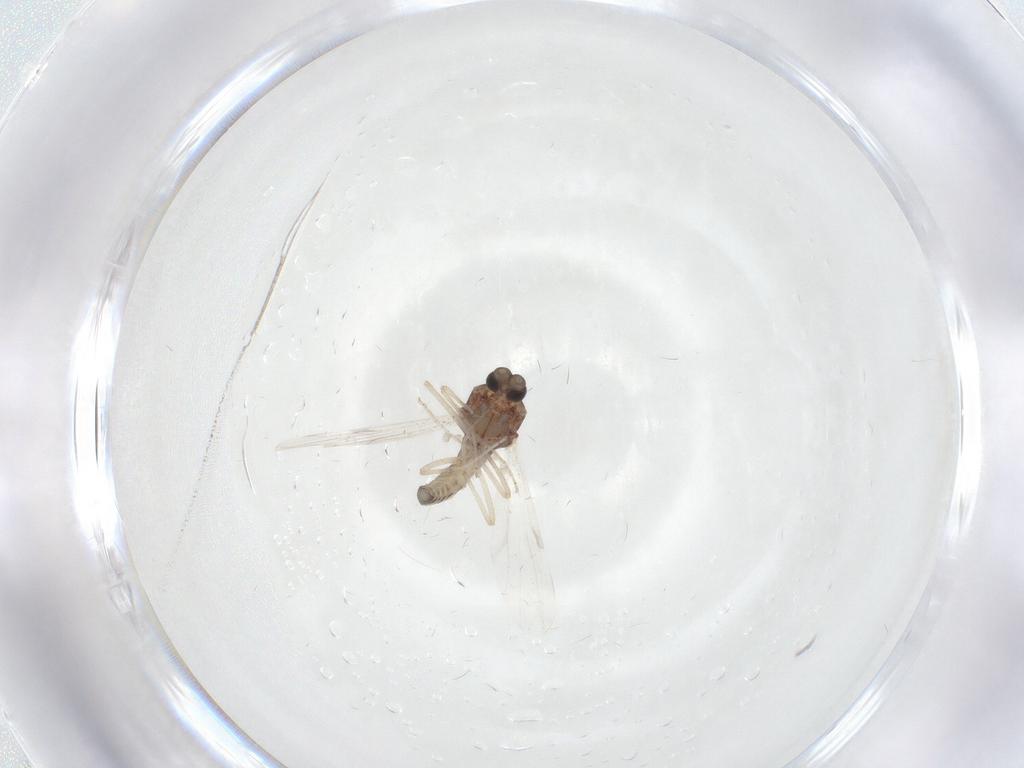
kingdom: Animalia
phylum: Arthropoda
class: Insecta
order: Diptera
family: Ceratopogonidae
